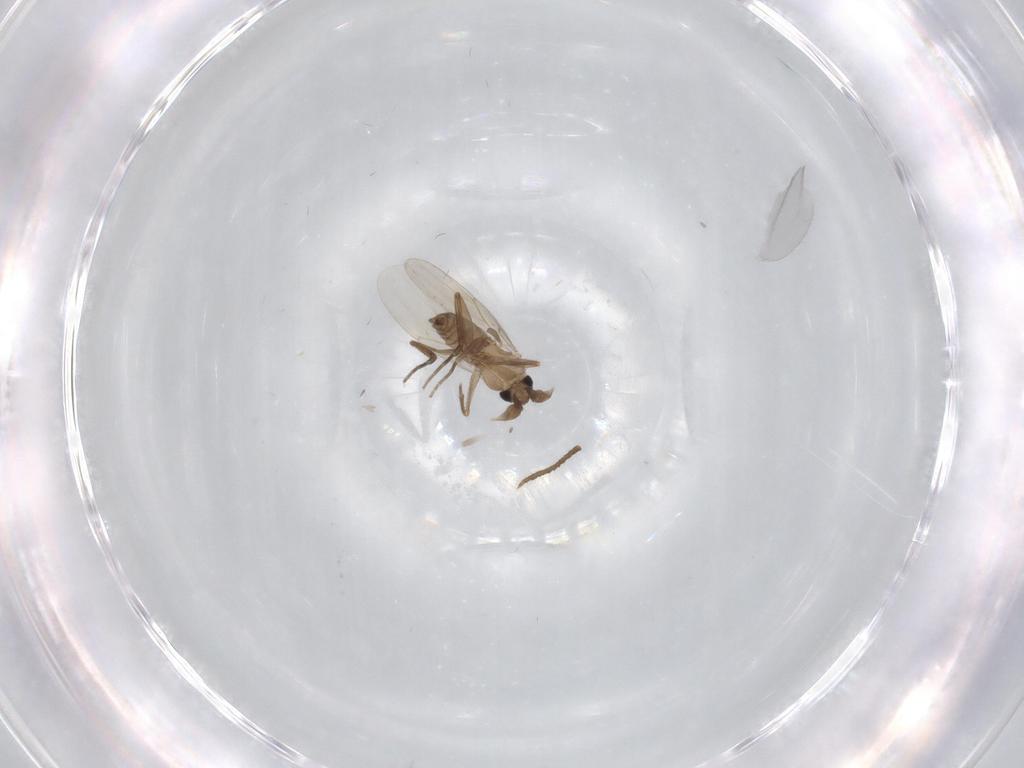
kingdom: Animalia
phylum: Arthropoda
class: Insecta
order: Diptera
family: Phoridae
